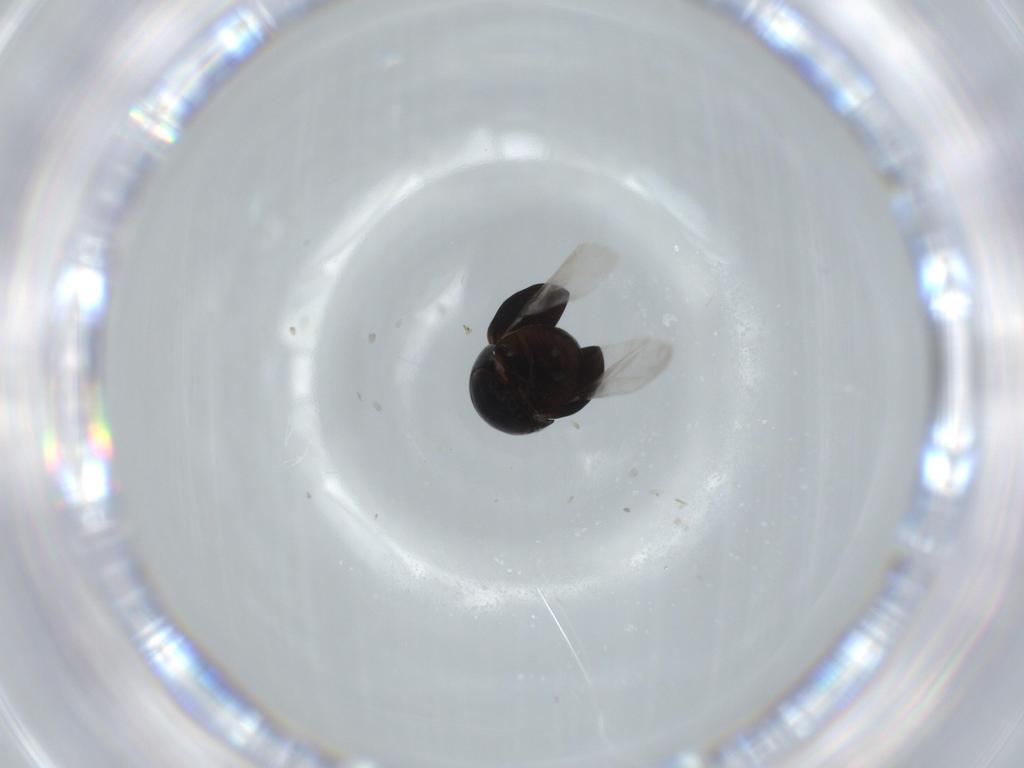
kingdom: Animalia
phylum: Arthropoda
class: Insecta
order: Coleoptera
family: Cybocephalidae
